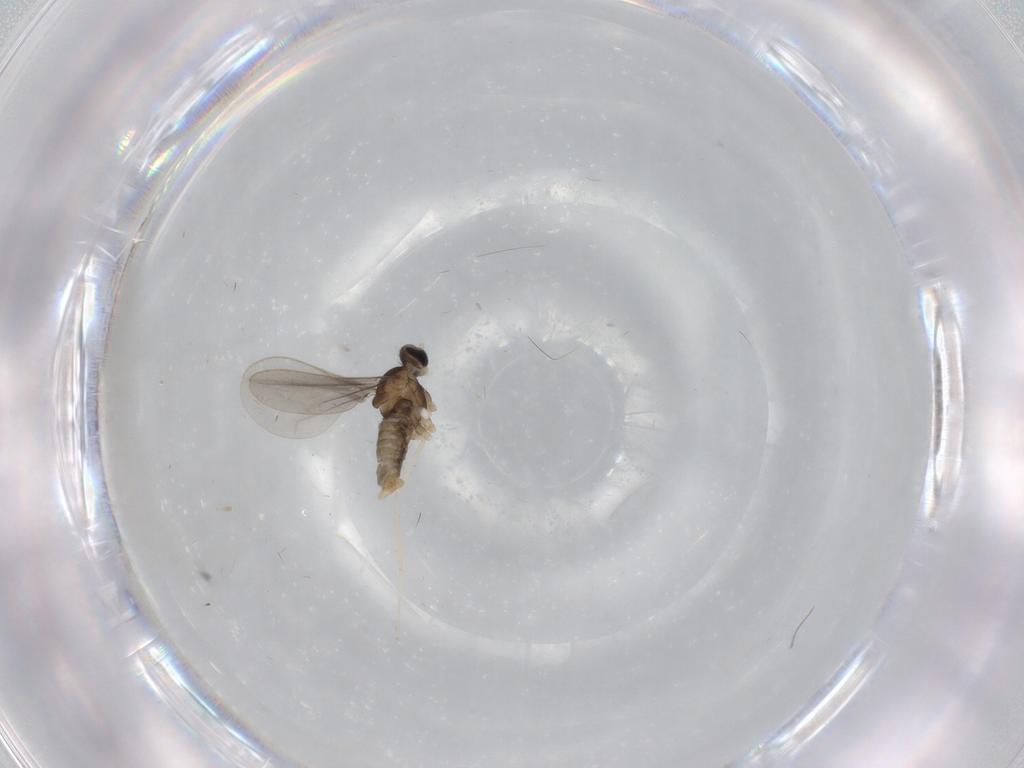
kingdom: Animalia
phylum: Arthropoda
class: Insecta
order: Diptera
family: Cecidomyiidae
